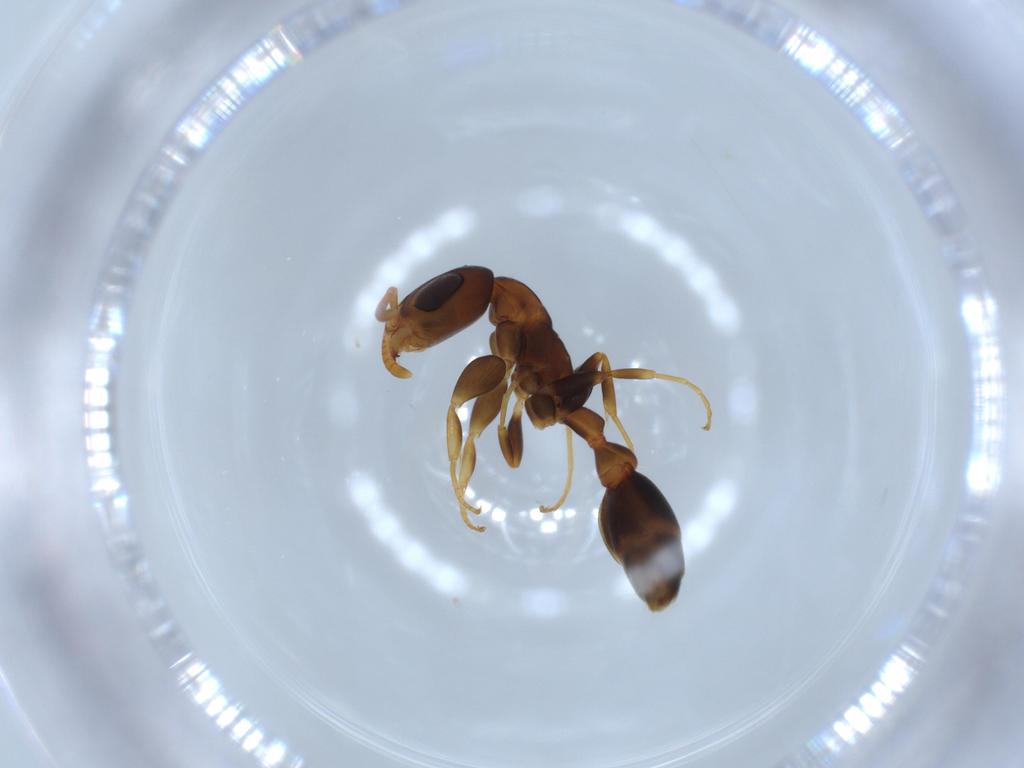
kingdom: Animalia
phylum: Arthropoda
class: Insecta
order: Hymenoptera
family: Formicidae
